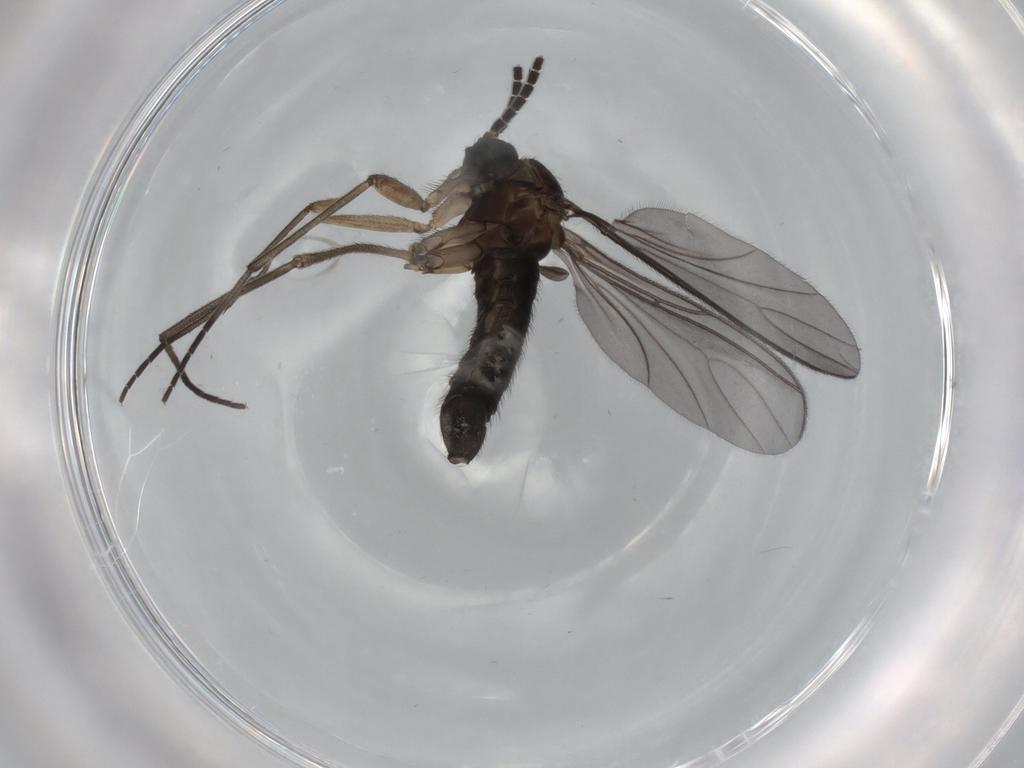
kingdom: Animalia
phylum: Arthropoda
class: Insecta
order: Diptera
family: Sciaridae
